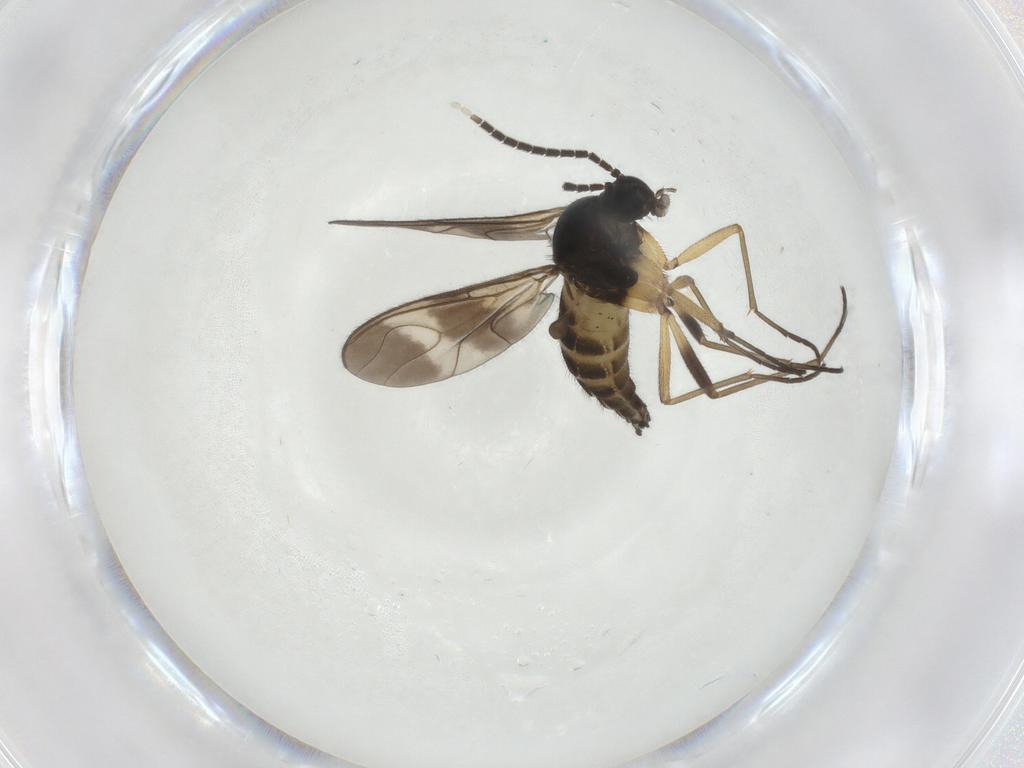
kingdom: Animalia
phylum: Arthropoda
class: Insecta
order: Diptera
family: Sciaridae
